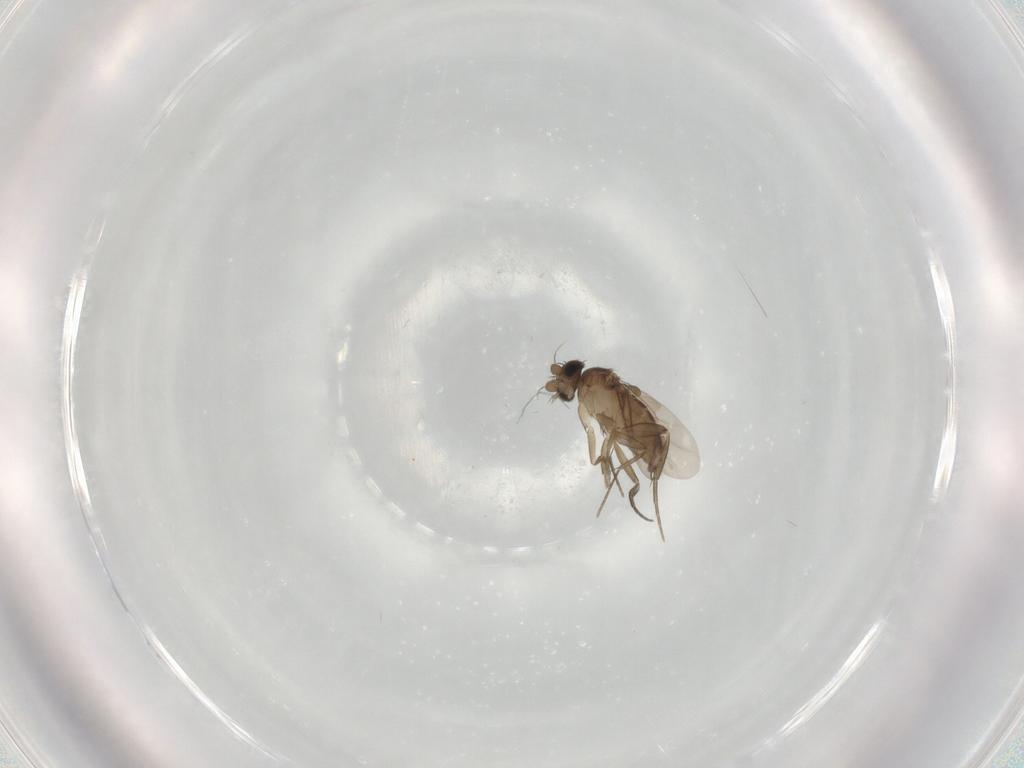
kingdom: Animalia
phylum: Arthropoda
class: Insecta
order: Diptera
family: Phoridae
